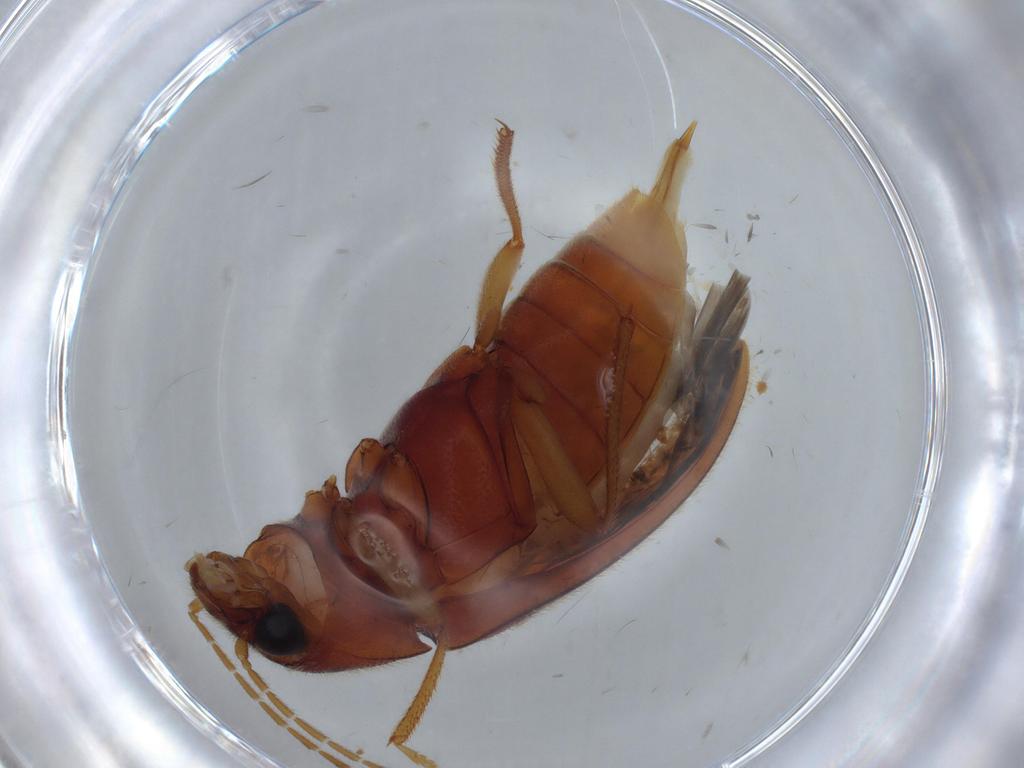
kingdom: Animalia
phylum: Arthropoda
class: Insecta
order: Coleoptera
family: Ptilodactylidae
